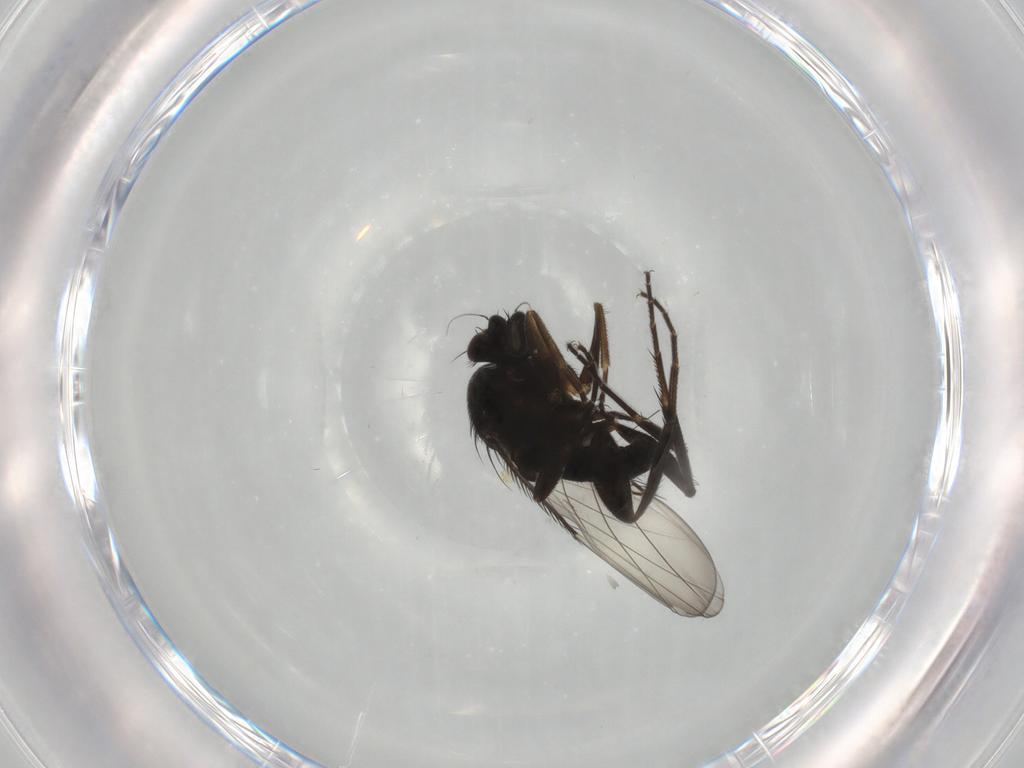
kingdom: Animalia
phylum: Arthropoda
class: Insecta
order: Diptera
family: Phoridae
